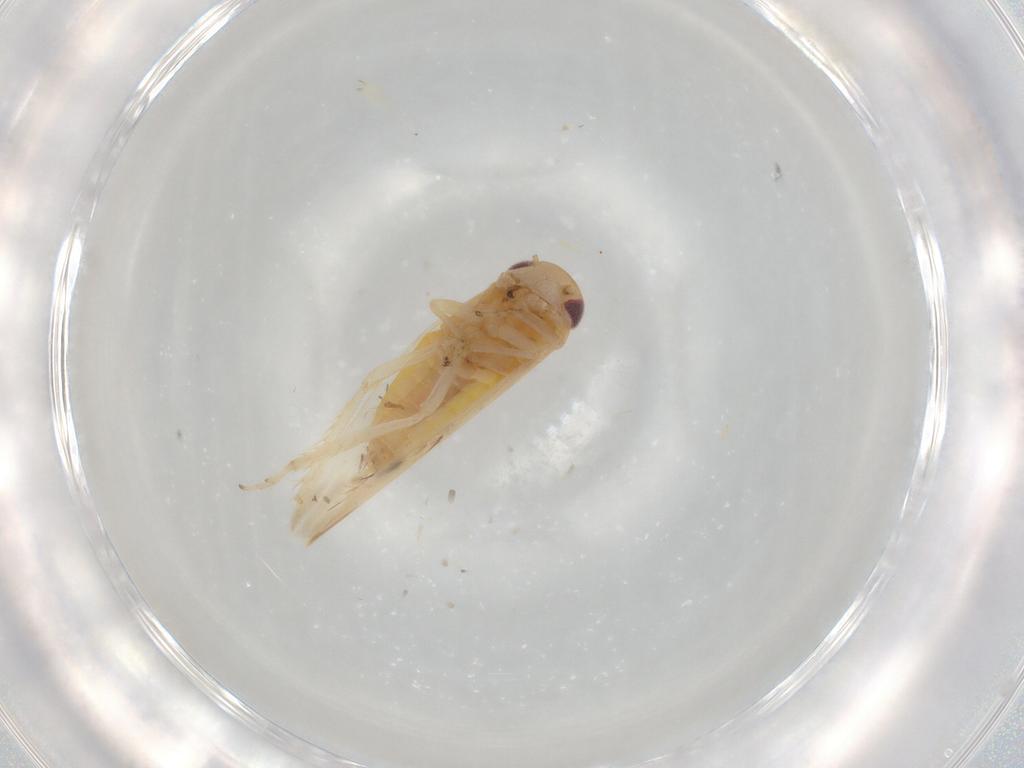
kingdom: Animalia
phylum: Arthropoda
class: Insecta
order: Hemiptera
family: Cicadellidae
